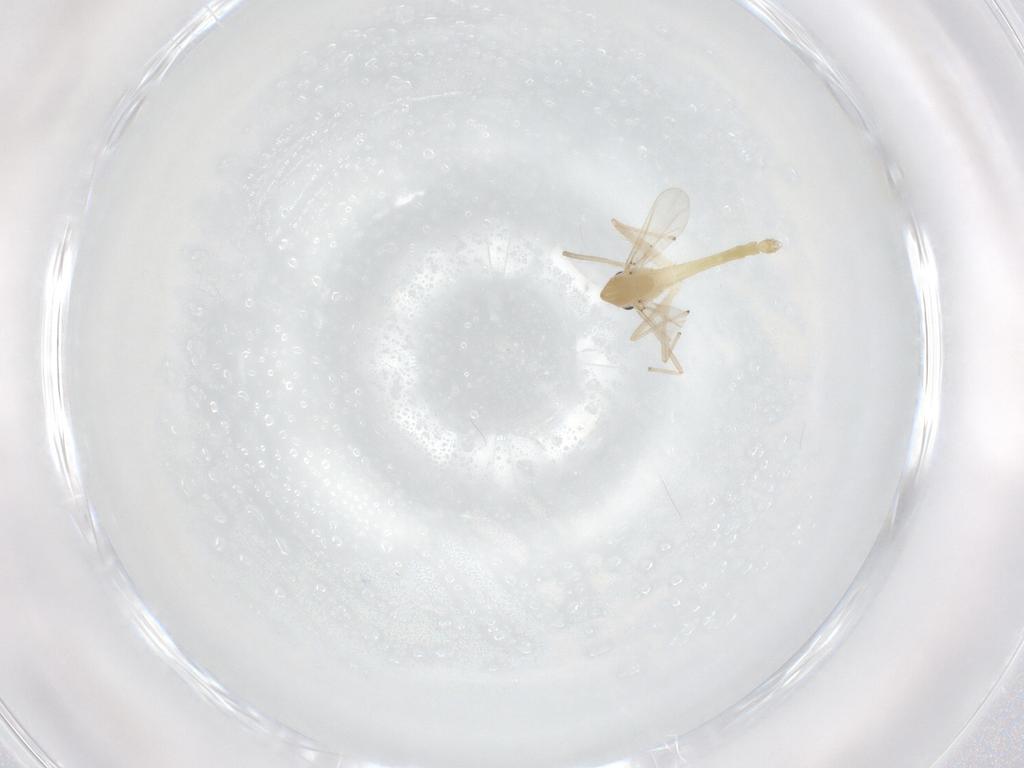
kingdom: Animalia
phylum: Arthropoda
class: Insecta
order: Diptera
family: Chironomidae
